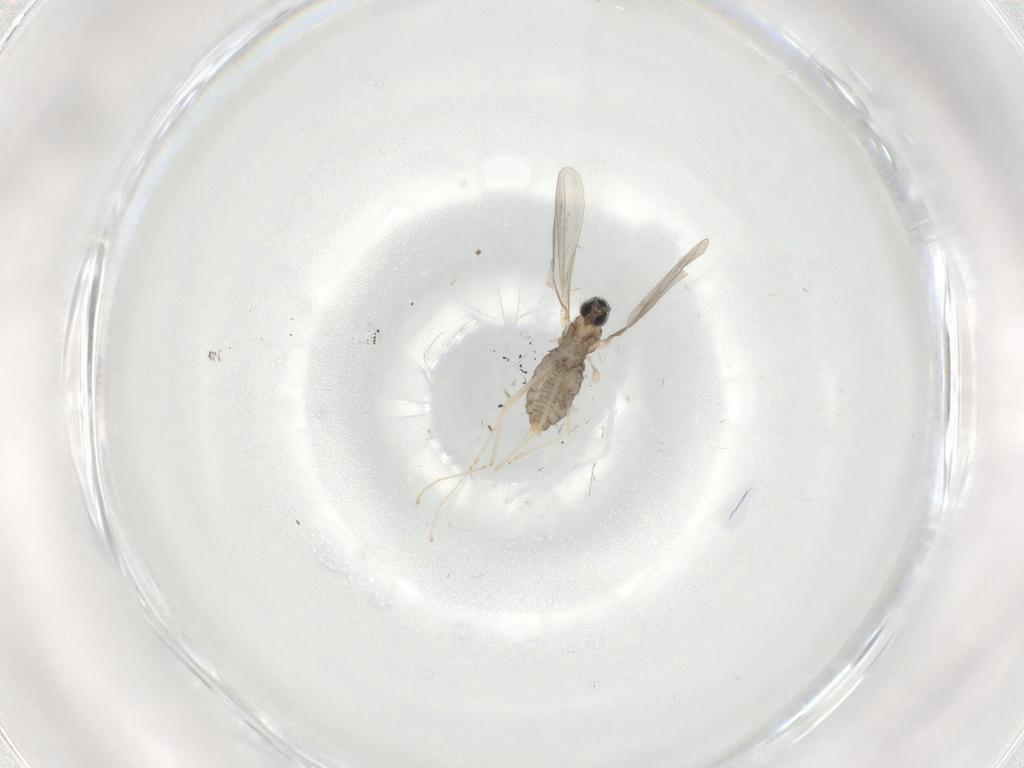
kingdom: Animalia
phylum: Arthropoda
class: Insecta
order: Diptera
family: Cecidomyiidae
